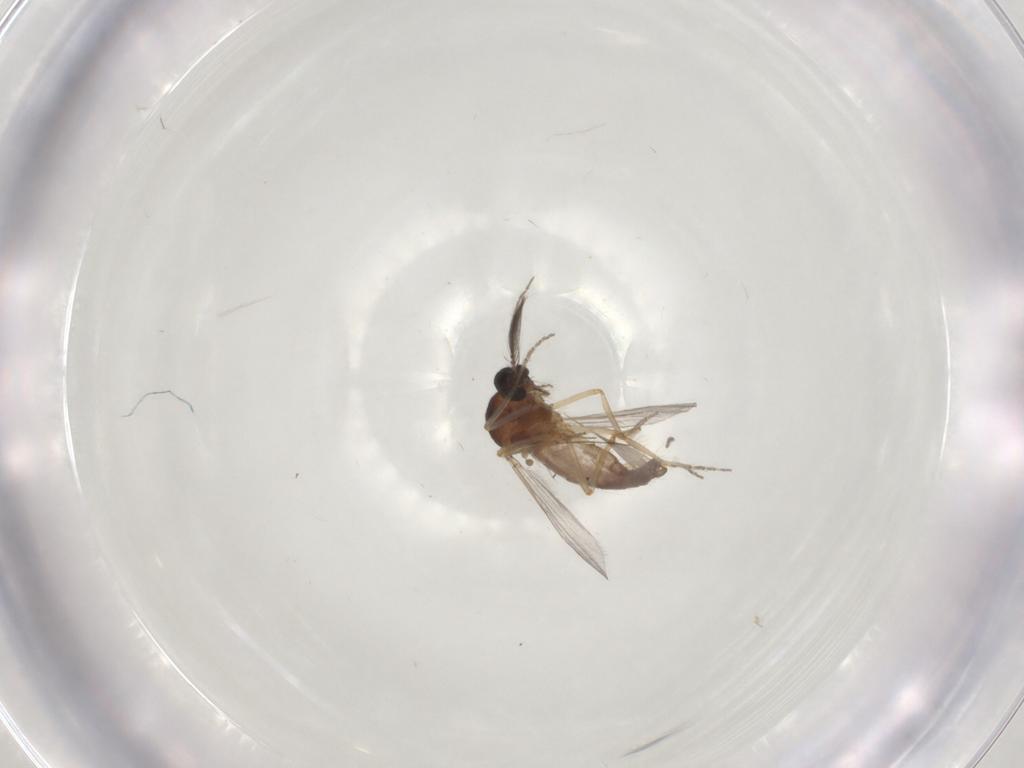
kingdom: Animalia
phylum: Arthropoda
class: Insecta
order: Diptera
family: Ceratopogonidae
